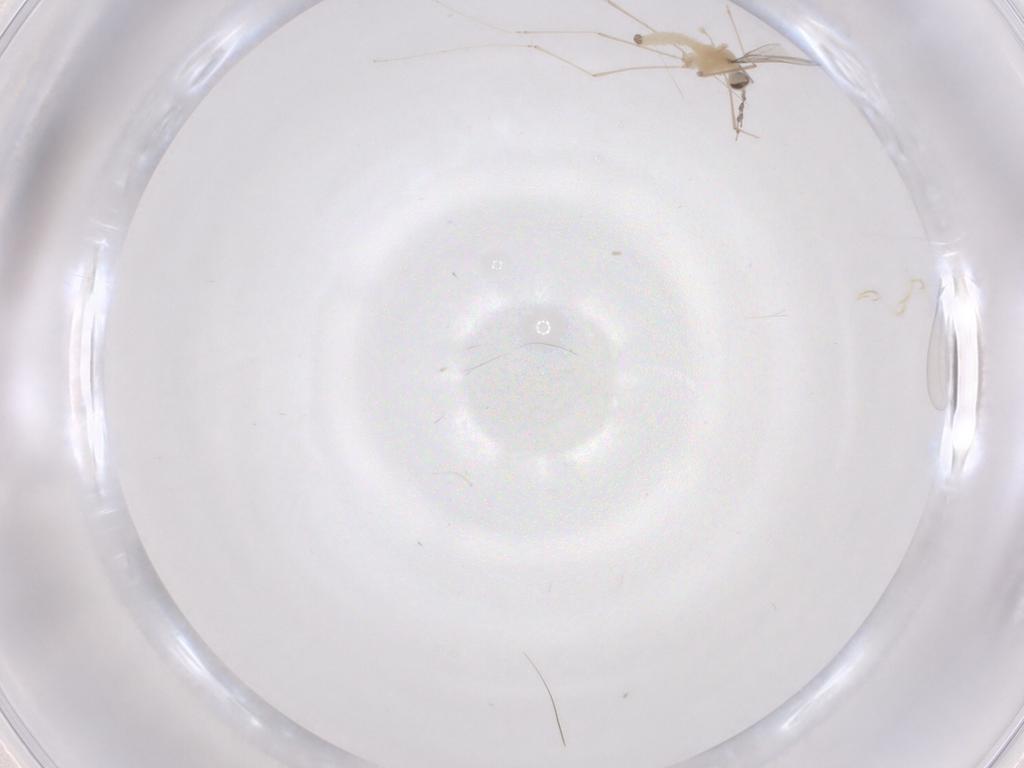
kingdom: Animalia
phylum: Arthropoda
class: Insecta
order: Diptera
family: Cecidomyiidae
